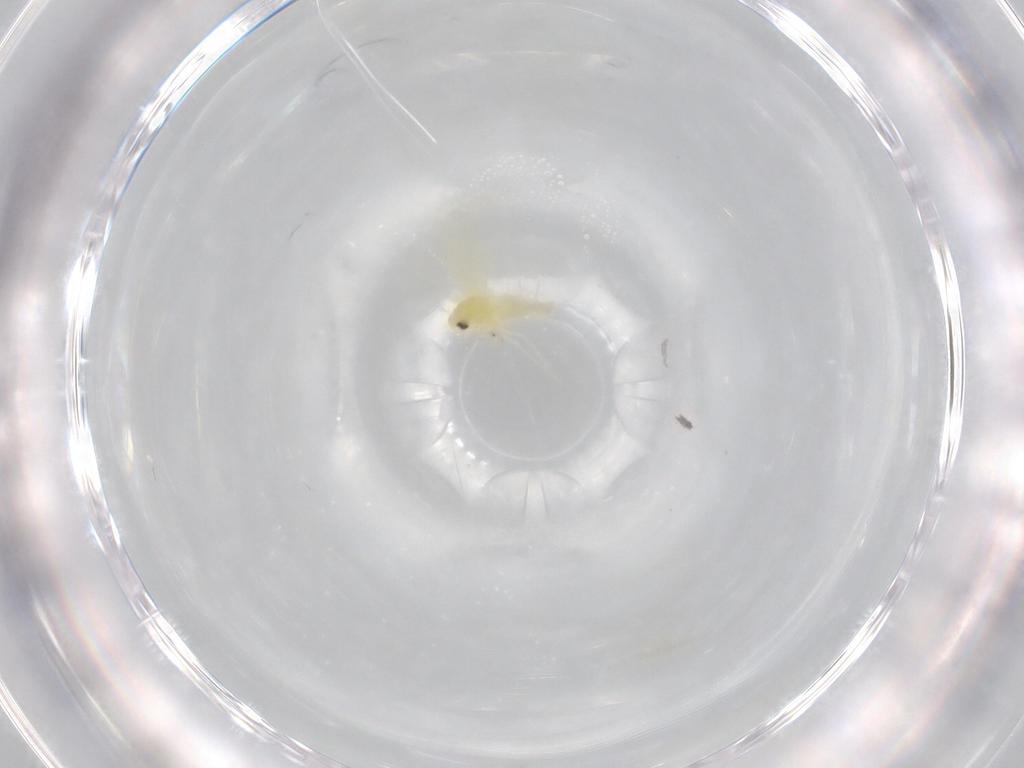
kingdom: Animalia
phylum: Arthropoda
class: Insecta
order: Hemiptera
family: Aleyrodidae
